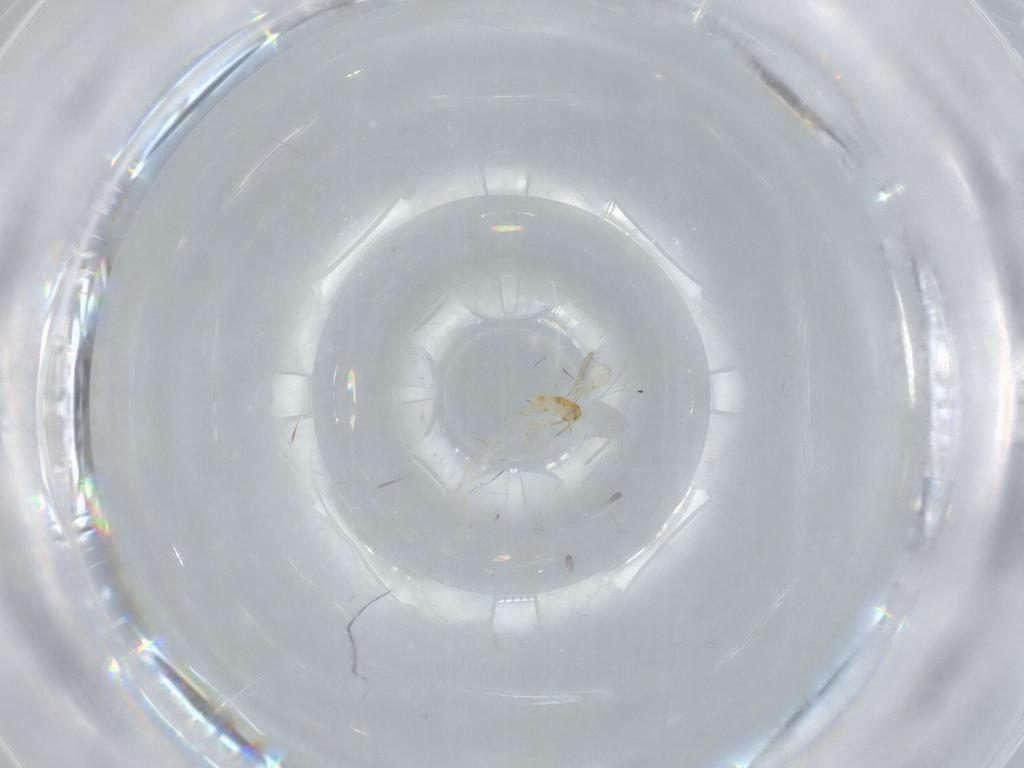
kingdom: Animalia
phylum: Arthropoda
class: Insecta
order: Hymenoptera
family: Aphelinidae
